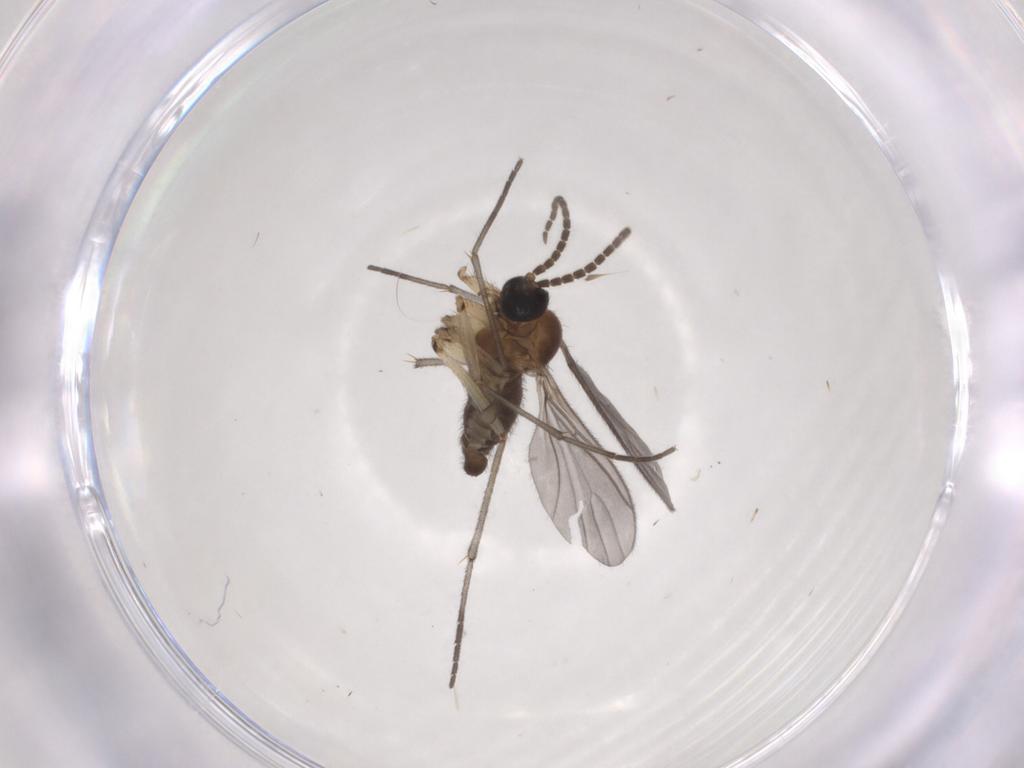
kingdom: Animalia
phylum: Arthropoda
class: Insecta
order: Diptera
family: Sciaridae
